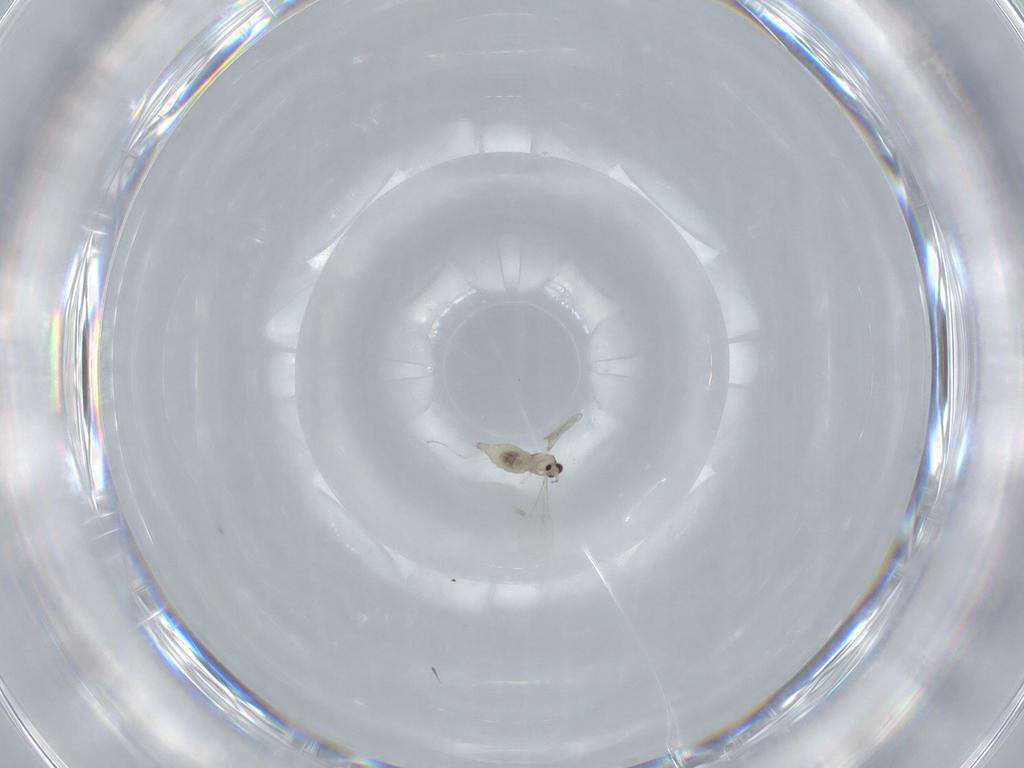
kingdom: Animalia
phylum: Arthropoda
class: Insecta
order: Diptera
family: Cecidomyiidae
